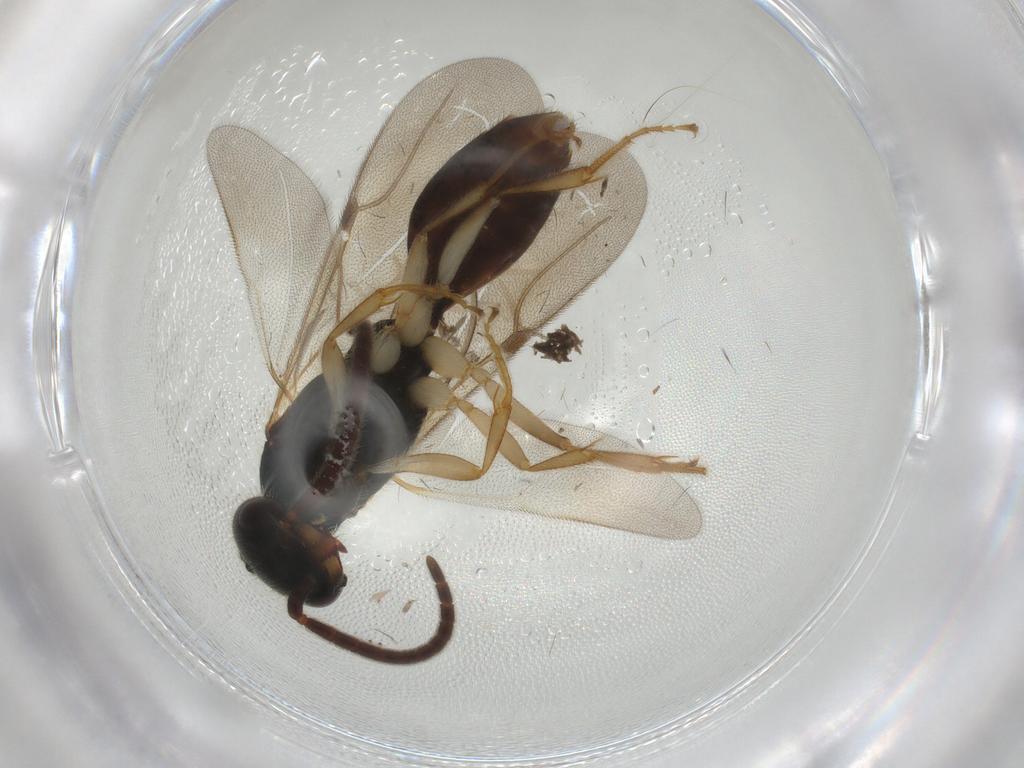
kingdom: Animalia
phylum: Arthropoda
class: Insecta
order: Hymenoptera
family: Bethylidae
